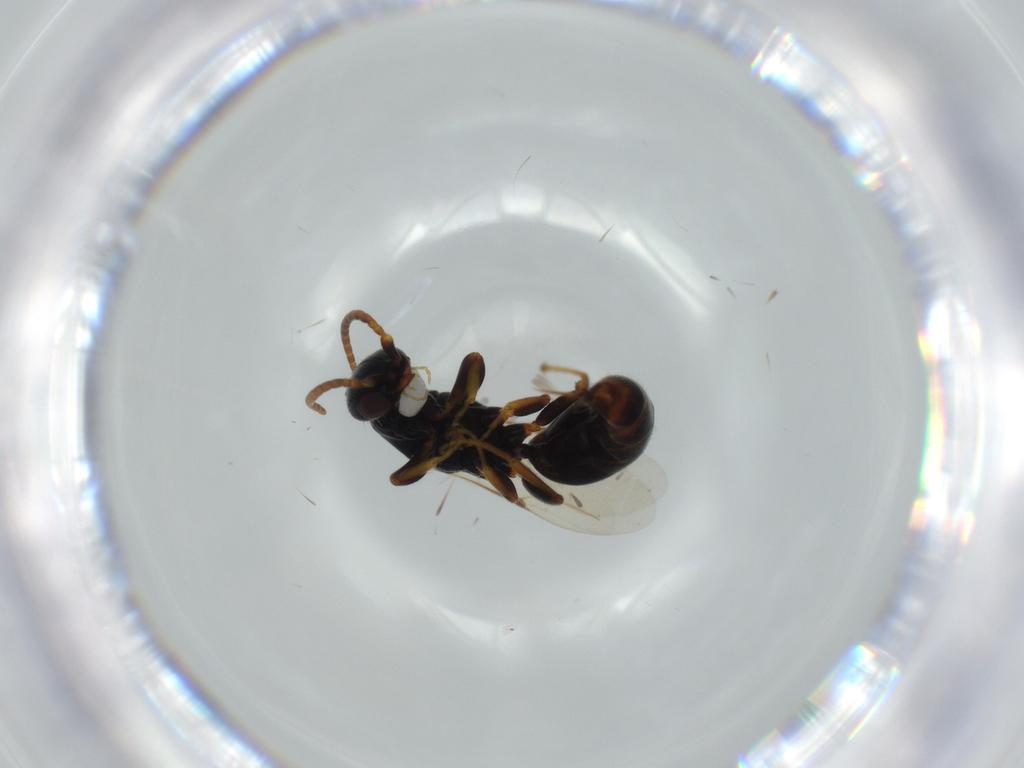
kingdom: Animalia
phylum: Arthropoda
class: Insecta
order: Hymenoptera
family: Bethylidae
